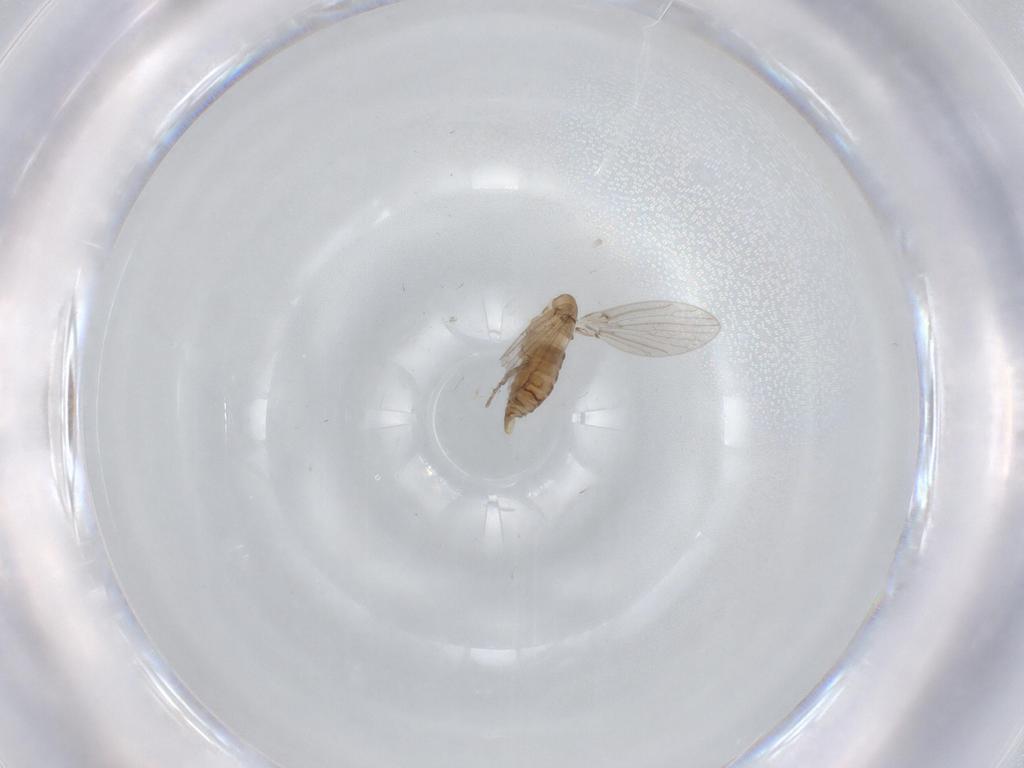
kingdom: Animalia
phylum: Arthropoda
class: Insecta
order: Diptera
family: Psychodidae
